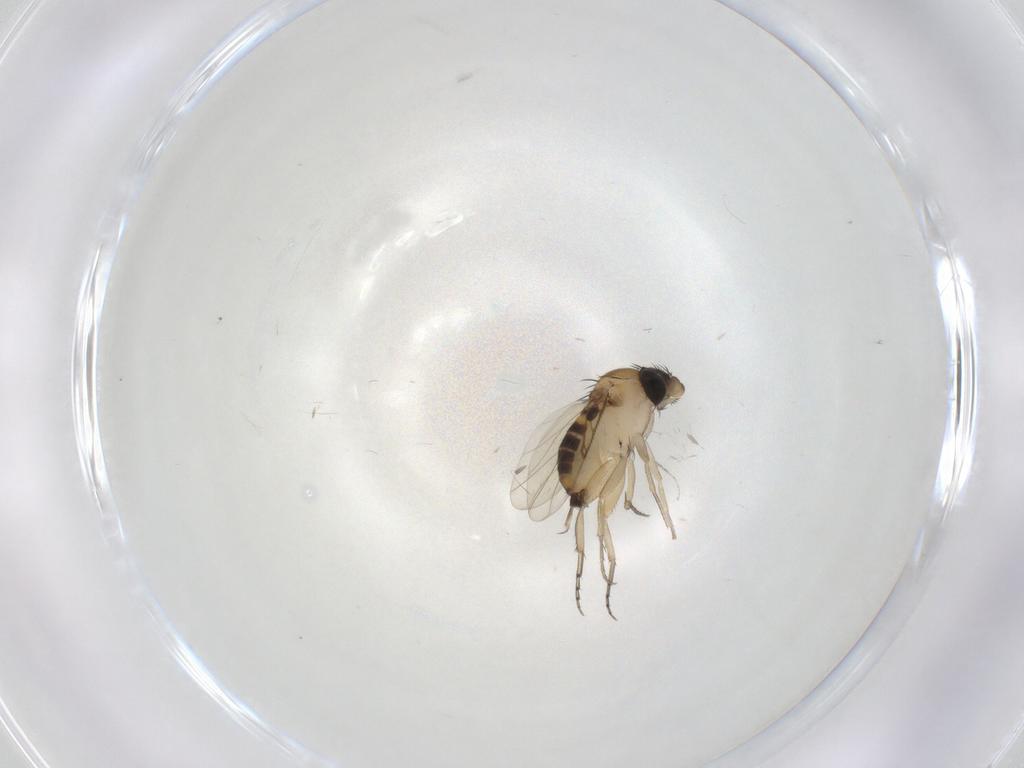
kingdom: Animalia
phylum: Arthropoda
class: Insecta
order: Diptera
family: Phoridae
